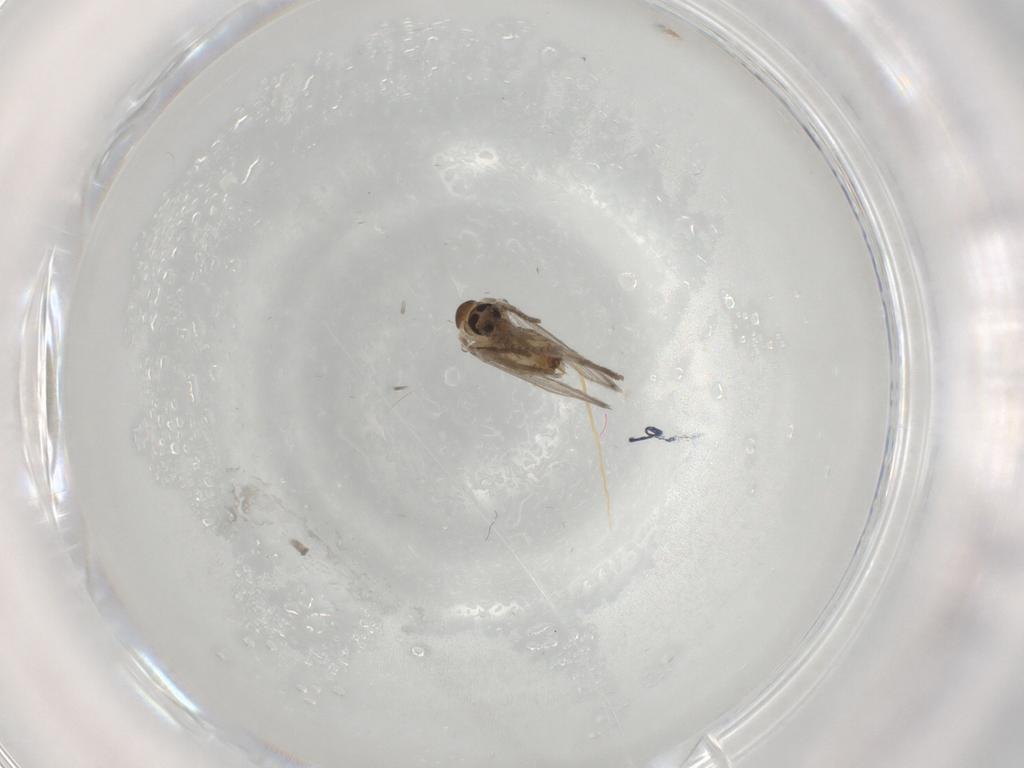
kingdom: Animalia
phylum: Arthropoda
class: Insecta
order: Diptera
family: Psychodidae
